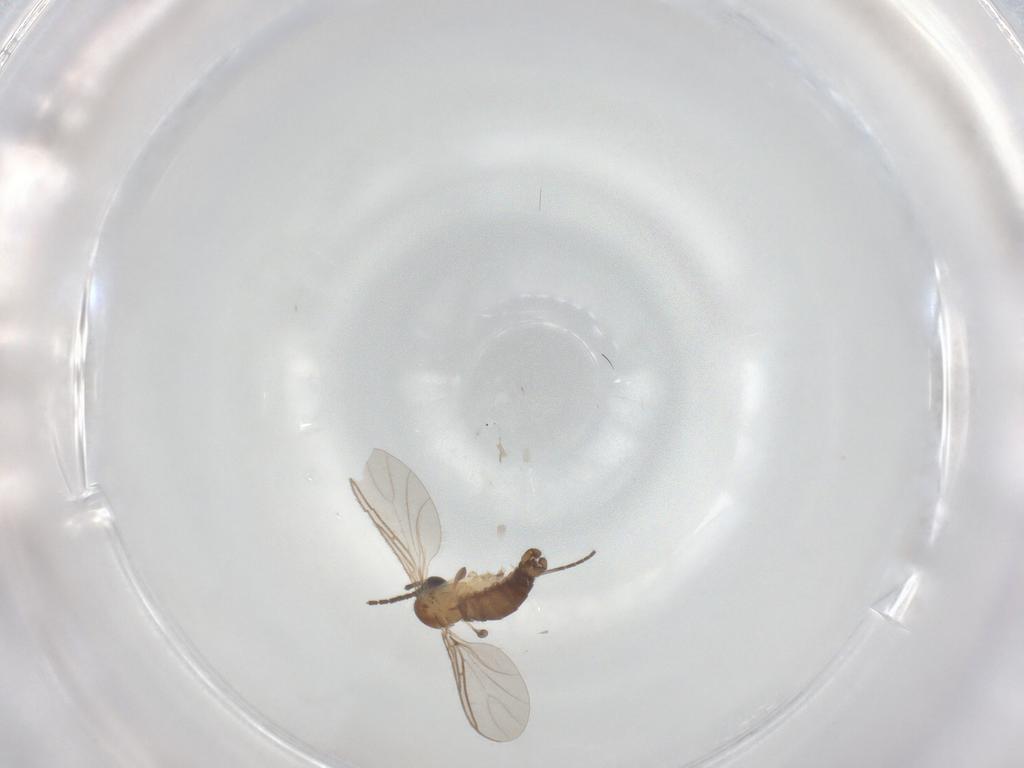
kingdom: Animalia
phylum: Arthropoda
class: Insecta
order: Diptera
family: Sciaridae
